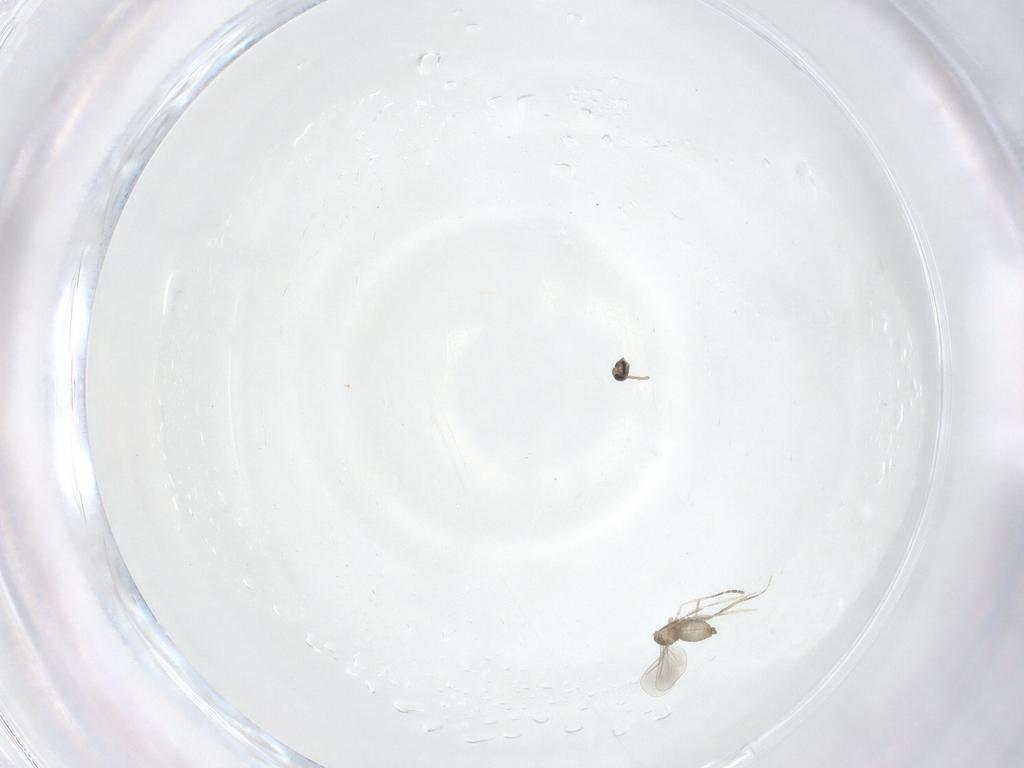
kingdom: Animalia
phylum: Arthropoda
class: Insecta
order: Diptera
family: Cecidomyiidae
